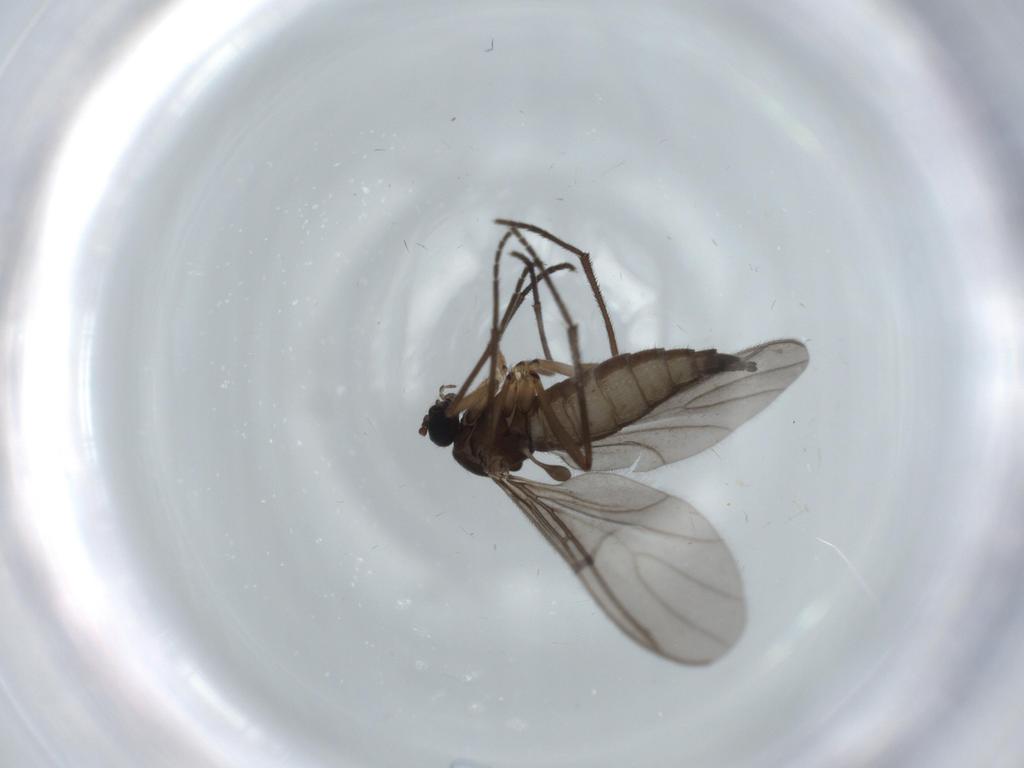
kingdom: Animalia
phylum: Arthropoda
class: Insecta
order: Diptera
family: Sciaridae
